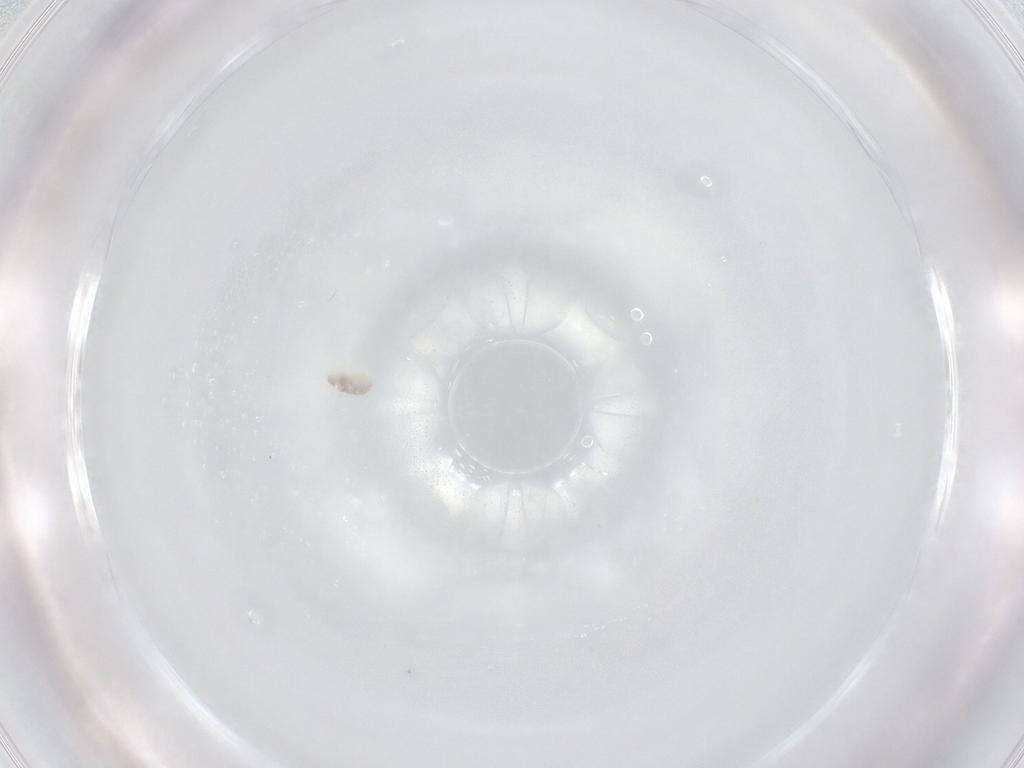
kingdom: Animalia
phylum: Arthropoda
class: Arachnida
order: Trombidiformes
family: Eupodidae
